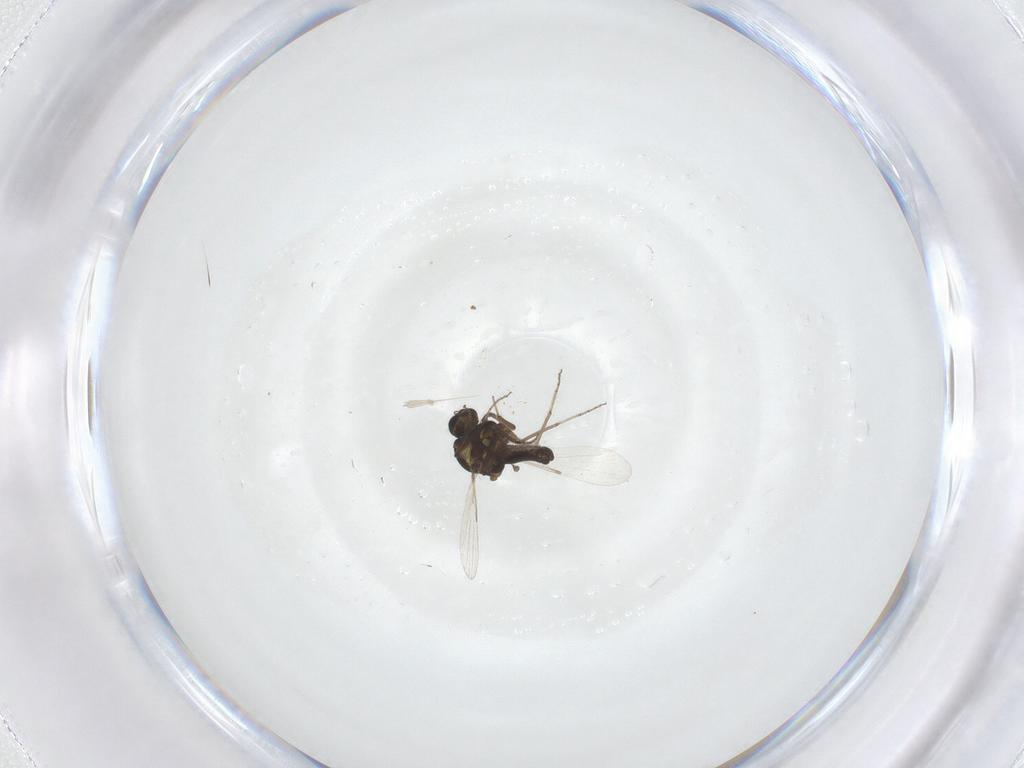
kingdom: Animalia
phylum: Arthropoda
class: Insecta
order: Diptera
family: Ceratopogonidae
